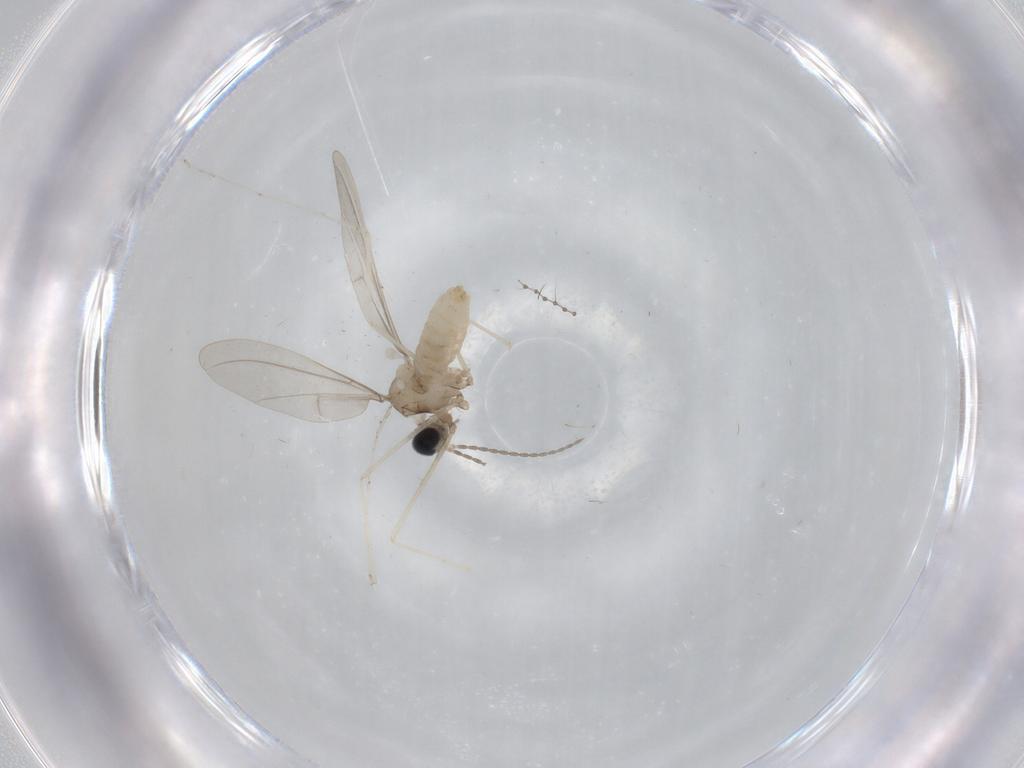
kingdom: Animalia
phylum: Arthropoda
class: Insecta
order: Diptera
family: Cecidomyiidae
